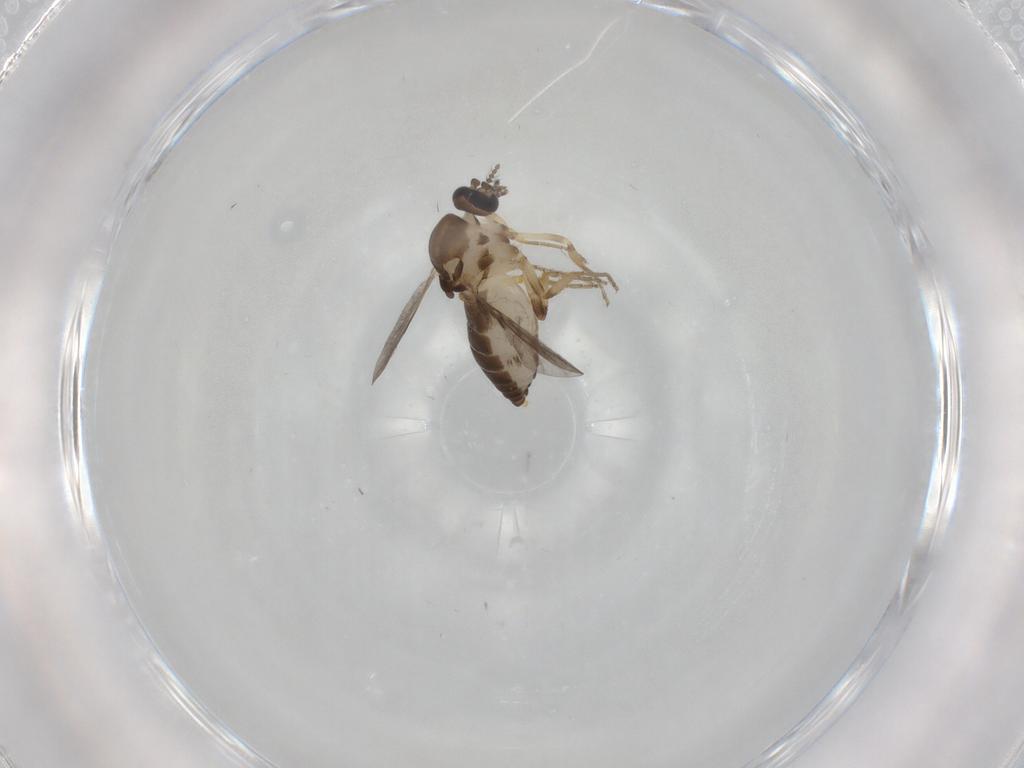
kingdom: Animalia
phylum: Arthropoda
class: Insecta
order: Diptera
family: Ceratopogonidae
